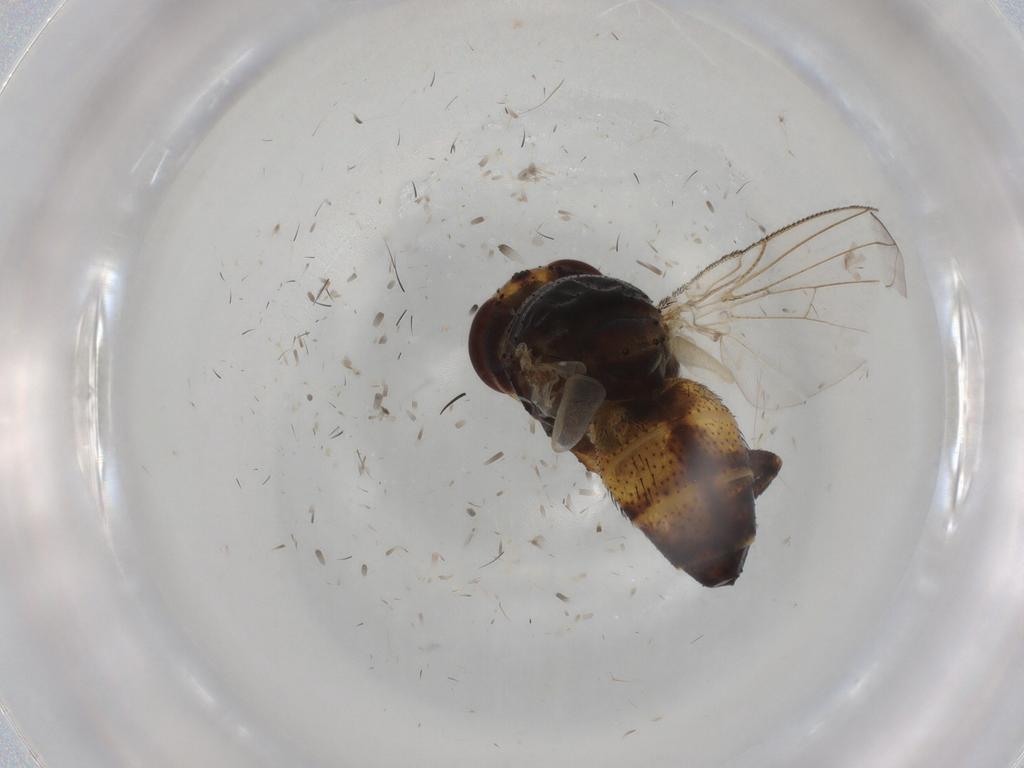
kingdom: Animalia
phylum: Arthropoda
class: Insecta
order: Diptera
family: Glossinidae
